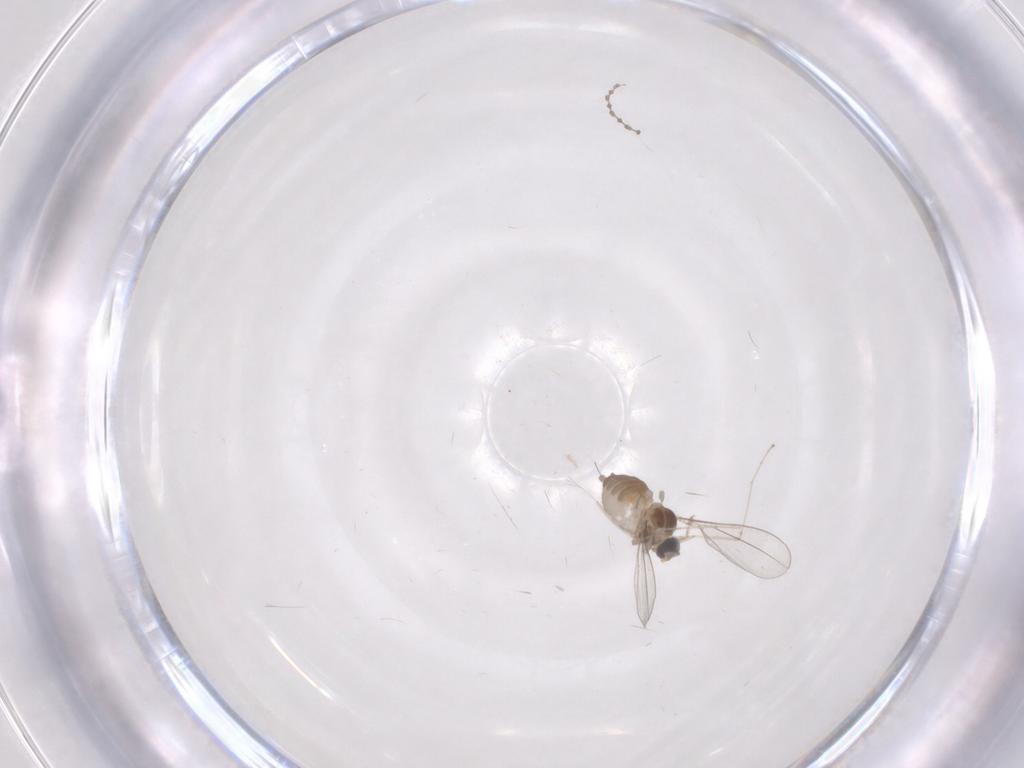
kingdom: Animalia
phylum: Arthropoda
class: Insecta
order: Diptera
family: Cecidomyiidae
